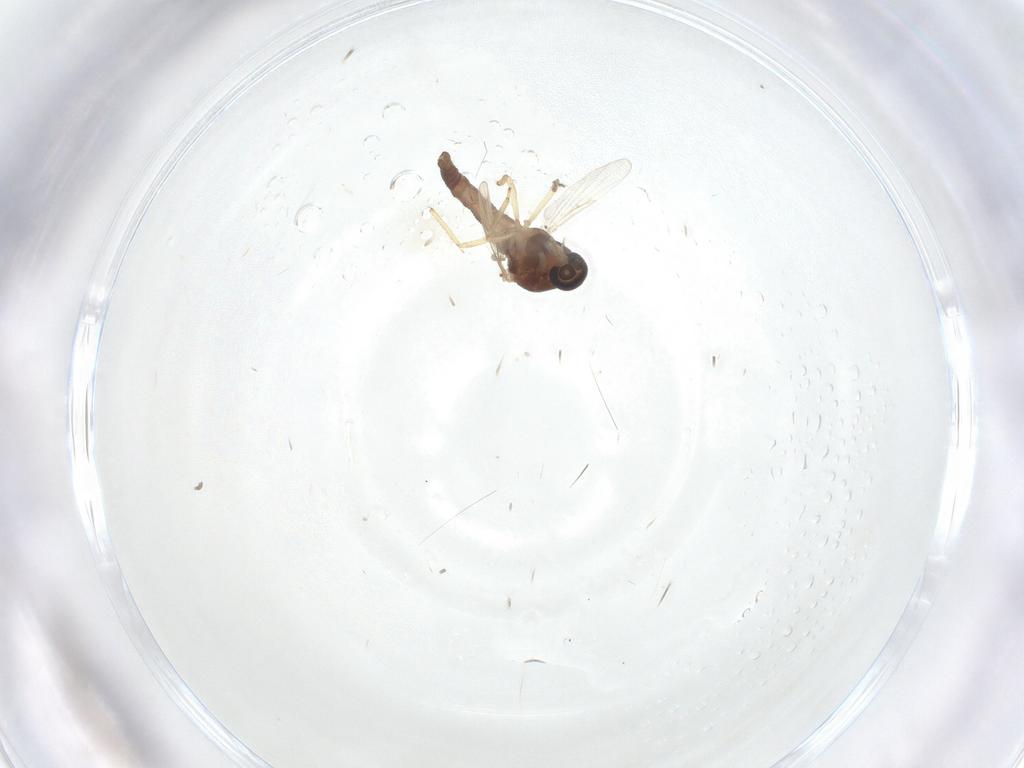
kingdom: Animalia
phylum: Arthropoda
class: Insecta
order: Diptera
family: Ceratopogonidae
